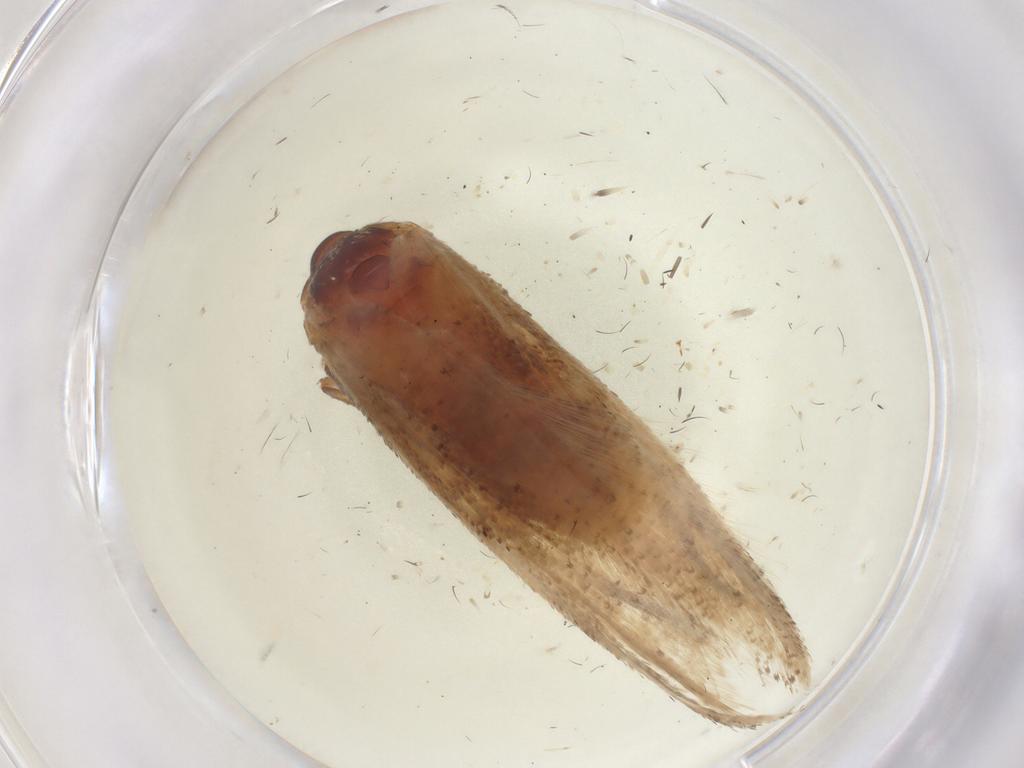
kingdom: Animalia
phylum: Arthropoda
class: Insecta
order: Lepidoptera
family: Cosmopterigidae
